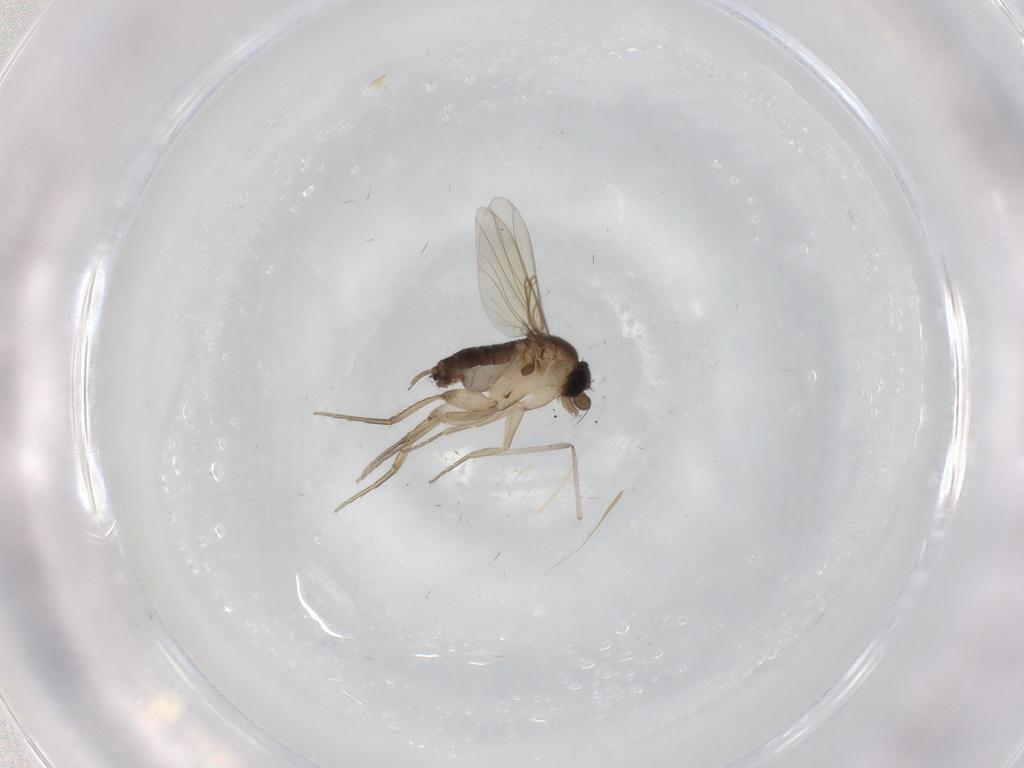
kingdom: Animalia
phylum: Arthropoda
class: Insecta
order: Diptera
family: Phoridae
